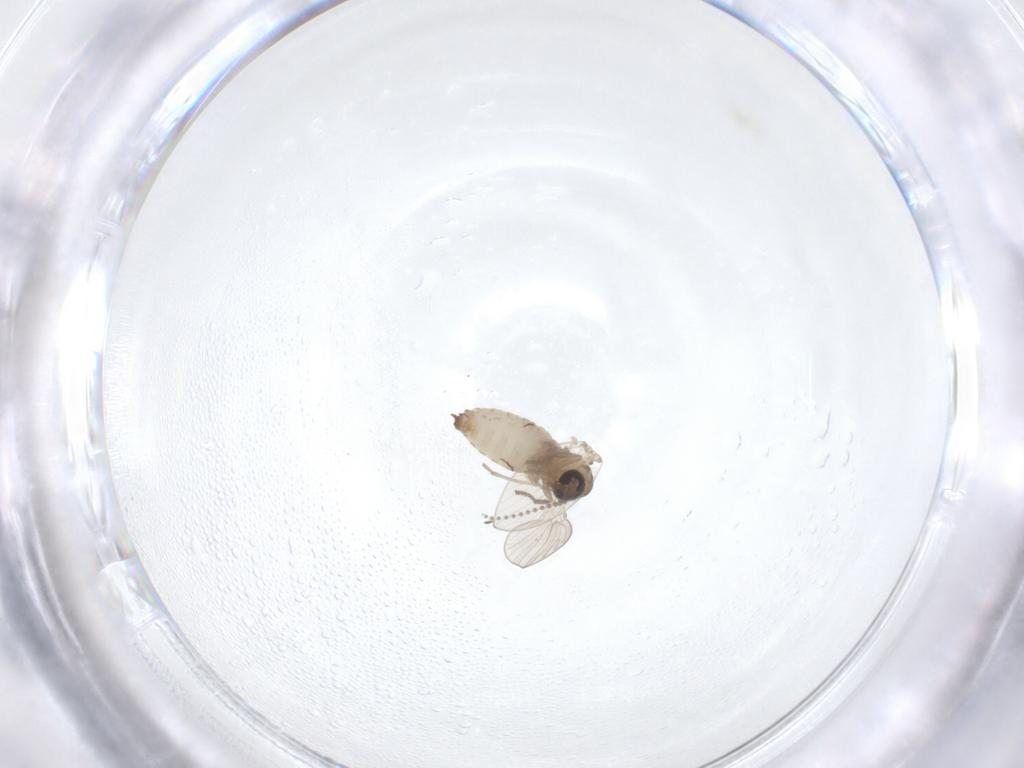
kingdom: Animalia
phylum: Arthropoda
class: Insecta
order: Diptera
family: Psychodidae
